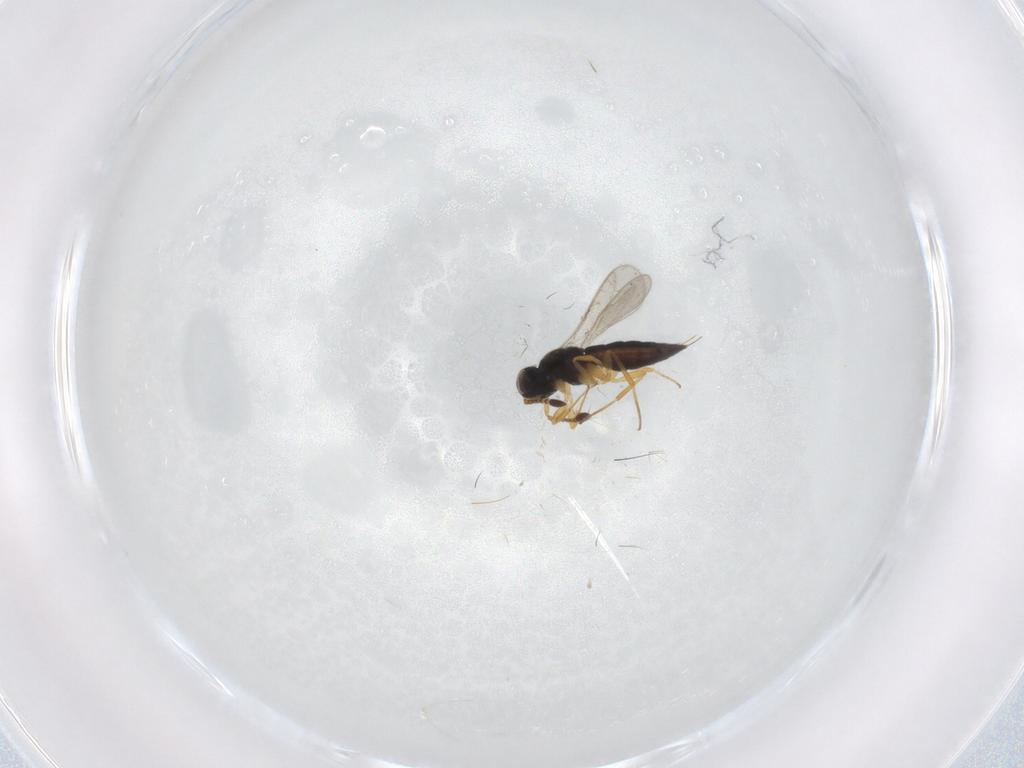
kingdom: Animalia
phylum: Arthropoda
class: Insecta
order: Hymenoptera
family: Scelionidae
